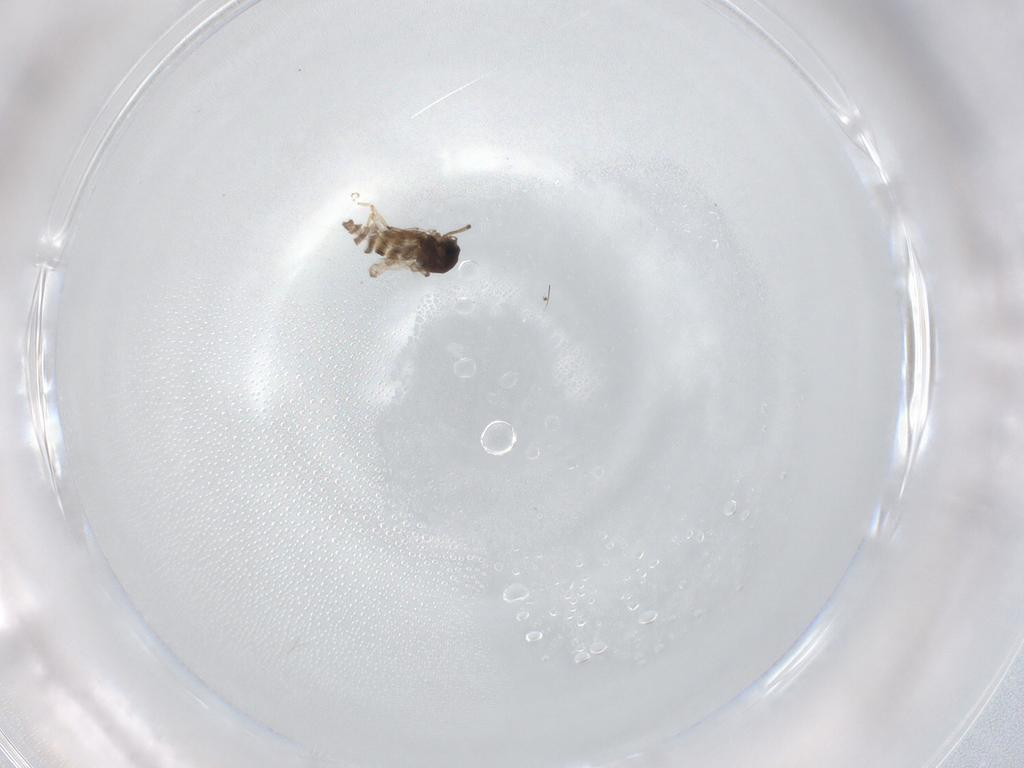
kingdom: Animalia
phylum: Arthropoda
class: Insecta
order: Diptera
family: Ceratopogonidae
